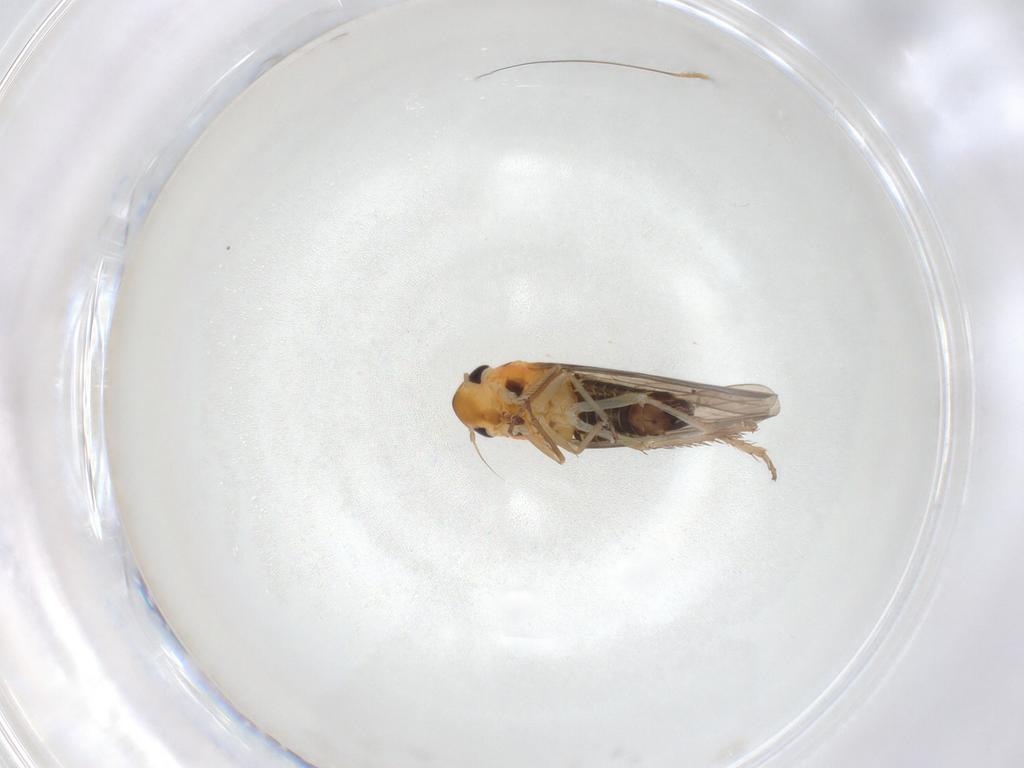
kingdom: Animalia
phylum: Arthropoda
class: Insecta
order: Hemiptera
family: Cicadellidae
